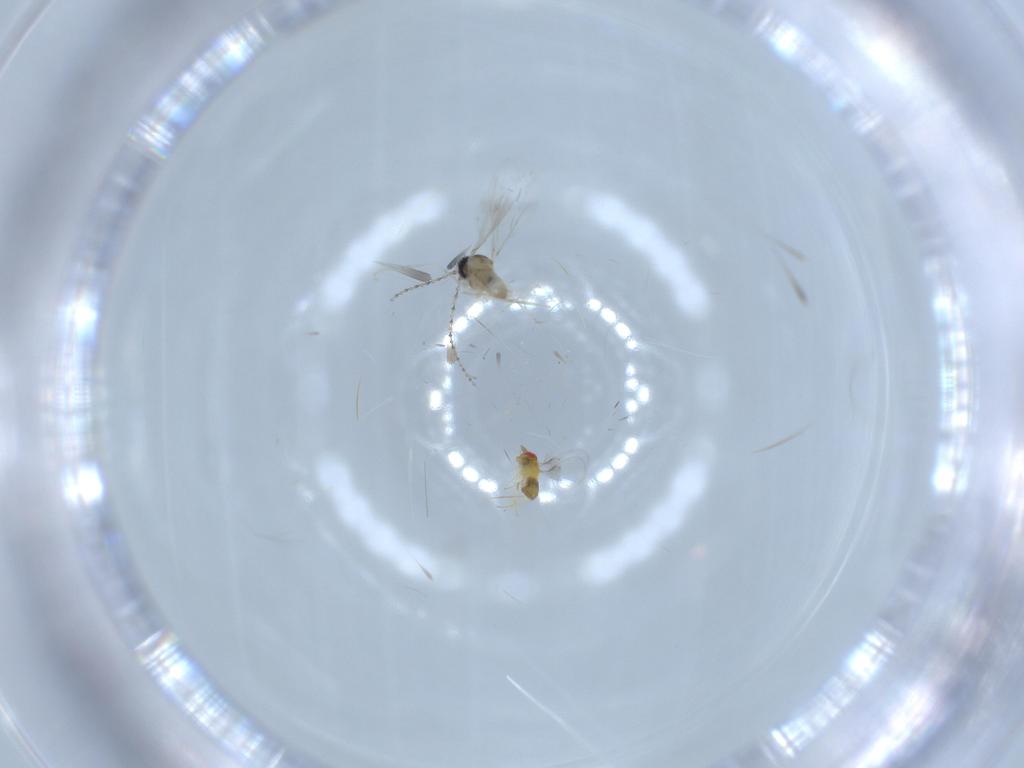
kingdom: Animalia
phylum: Arthropoda
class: Insecta
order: Diptera
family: Cecidomyiidae
